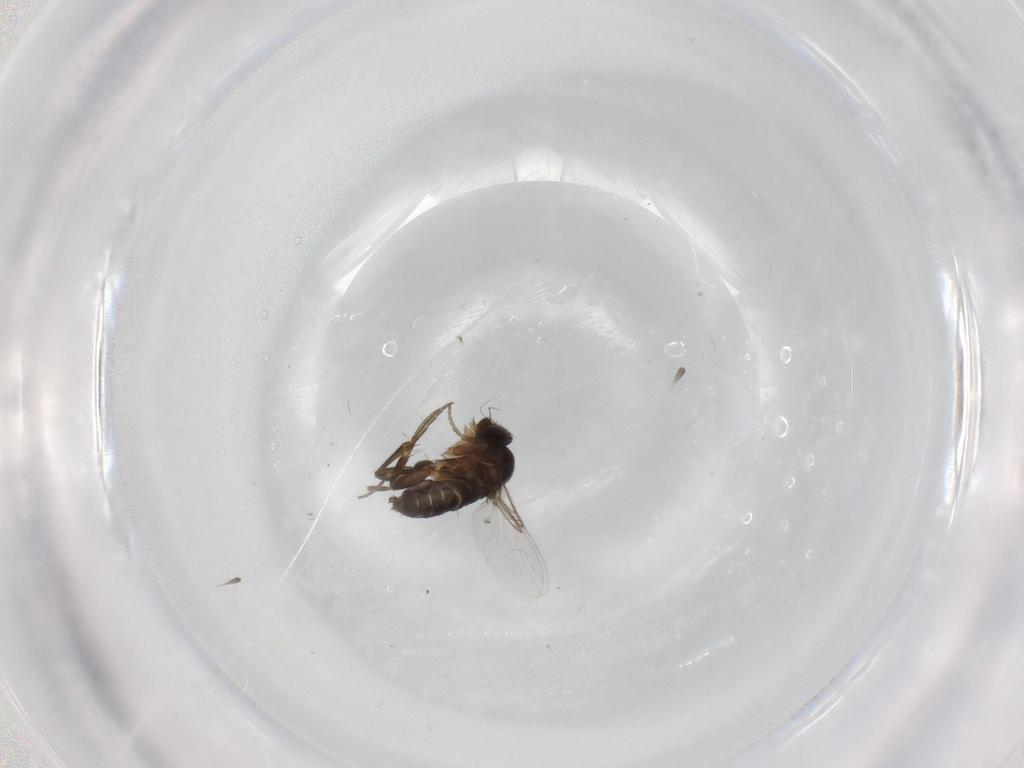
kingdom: Animalia
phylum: Arthropoda
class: Insecta
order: Diptera
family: Phoridae
